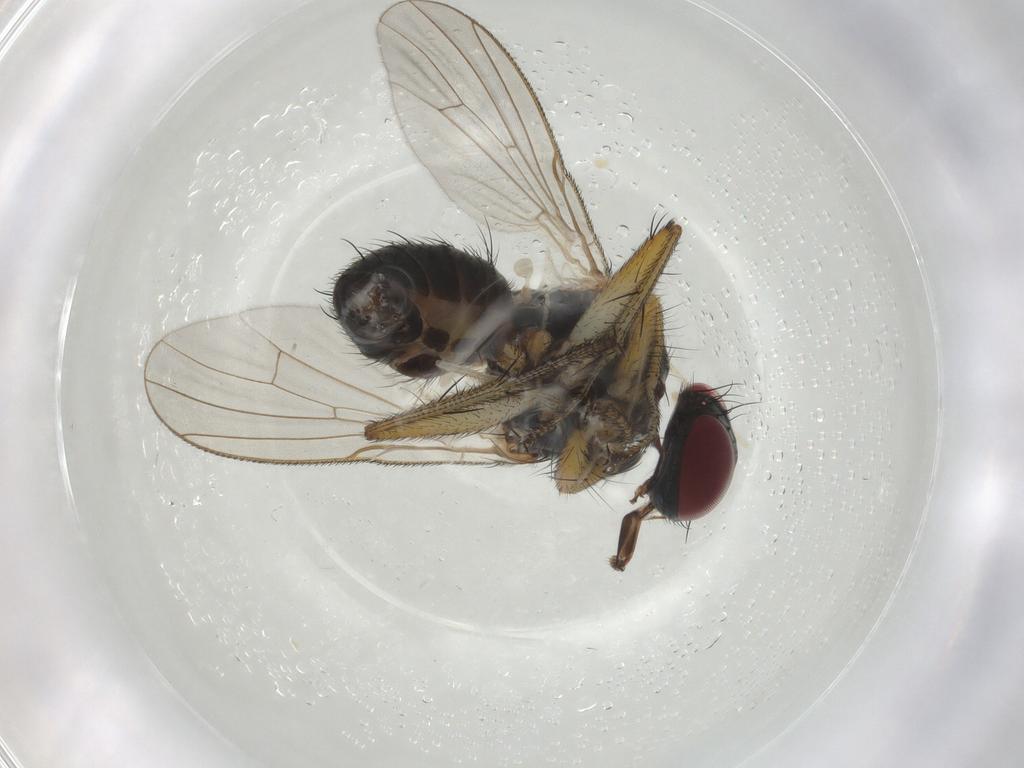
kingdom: Animalia
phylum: Arthropoda
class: Insecta
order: Diptera
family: Muscidae
